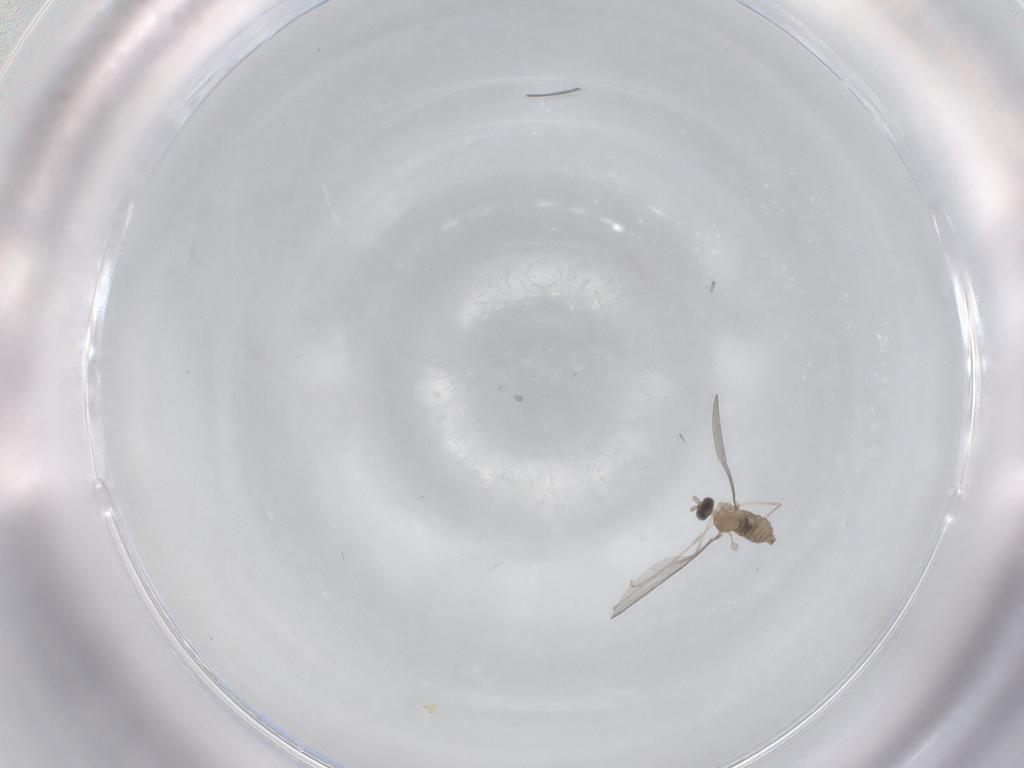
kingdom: Animalia
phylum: Arthropoda
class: Insecta
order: Diptera
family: Cecidomyiidae
